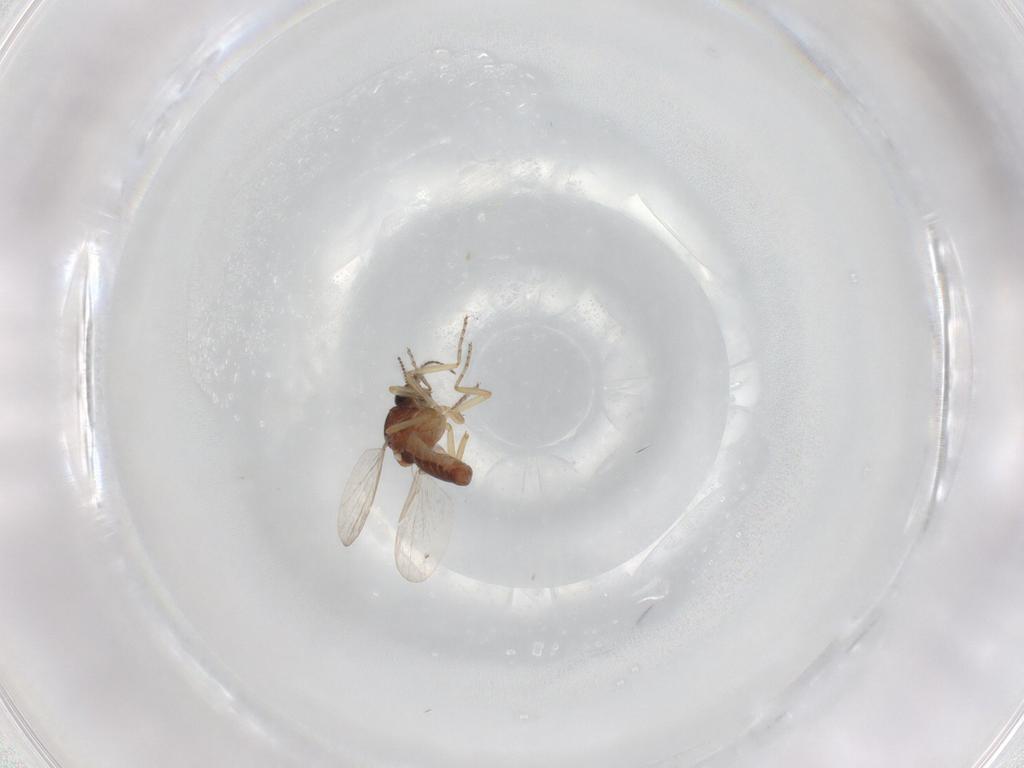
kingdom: Animalia
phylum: Arthropoda
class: Insecta
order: Diptera
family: Ceratopogonidae
